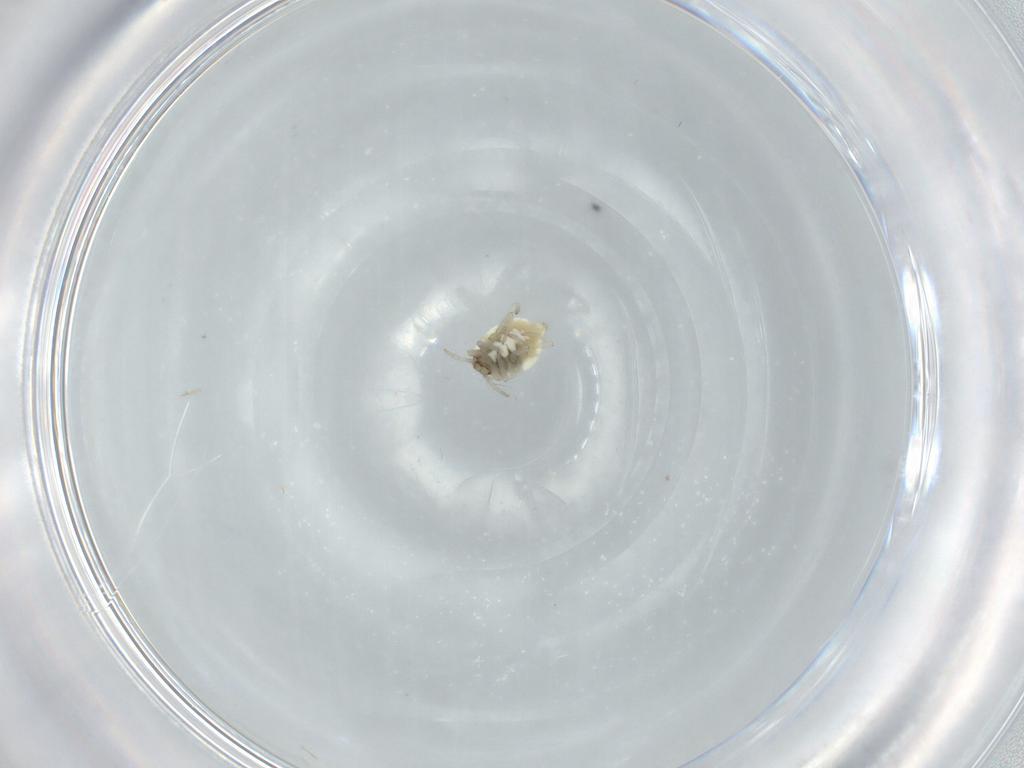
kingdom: Animalia
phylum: Arthropoda
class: Insecta
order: Neuroptera
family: Coniopterygidae
